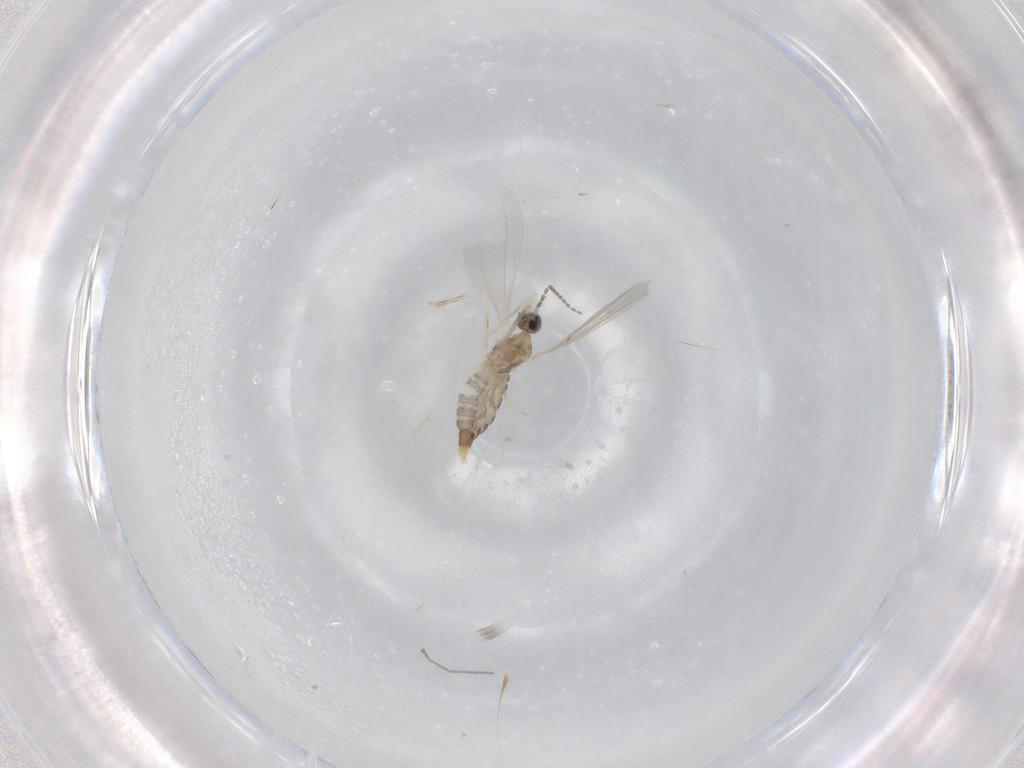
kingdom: Animalia
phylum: Arthropoda
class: Insecta
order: Diptera
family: Cecidomyiidae
